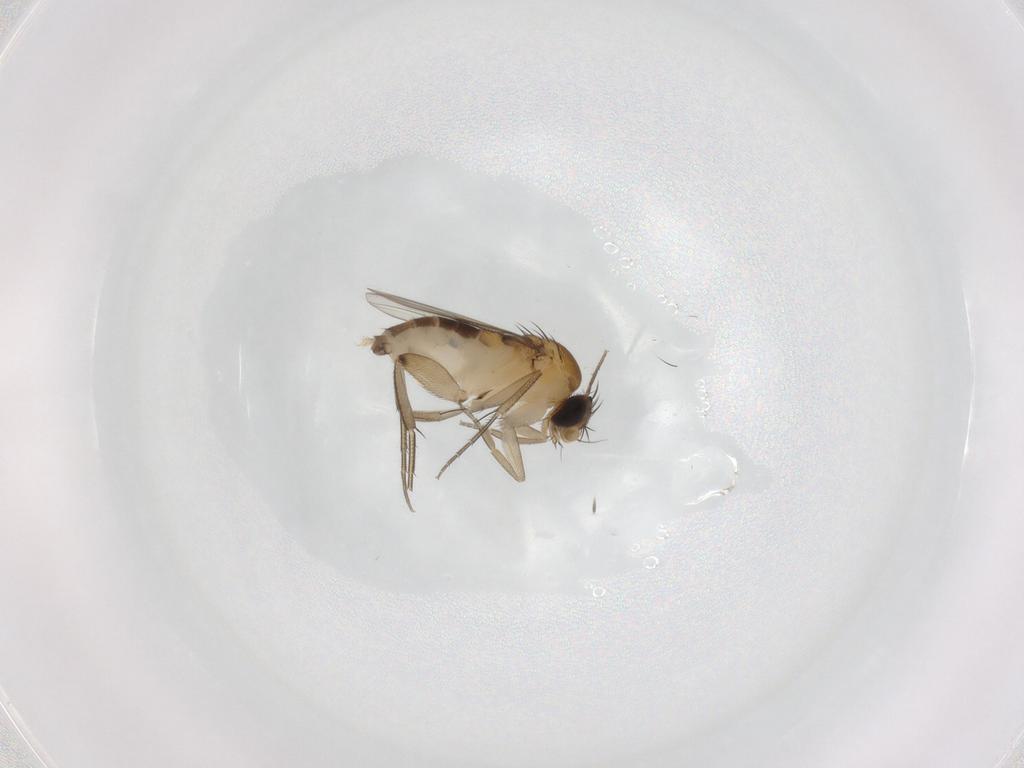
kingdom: Animalia
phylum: Arthropoda
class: Insecta
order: Diptera
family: Phoridae
